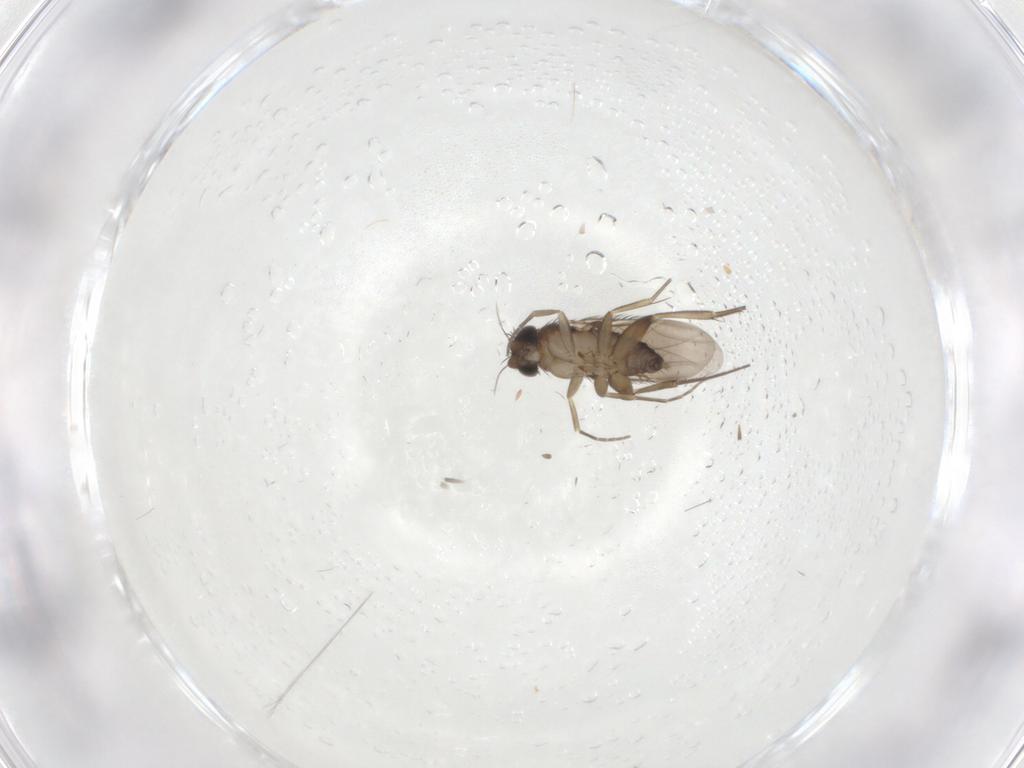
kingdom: Animalia
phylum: Arthropoda
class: Insecta
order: Diptera
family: Phoridae
